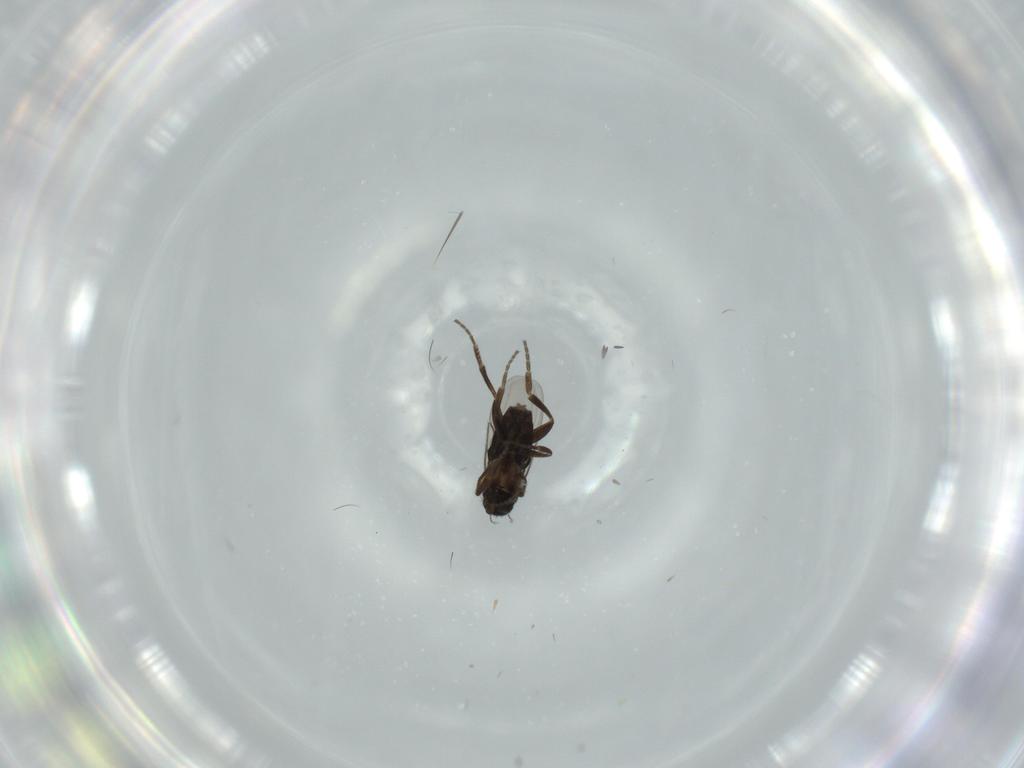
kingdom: Animalia
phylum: Arthropoda
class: Insecta
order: Diptera
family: Phoridae
